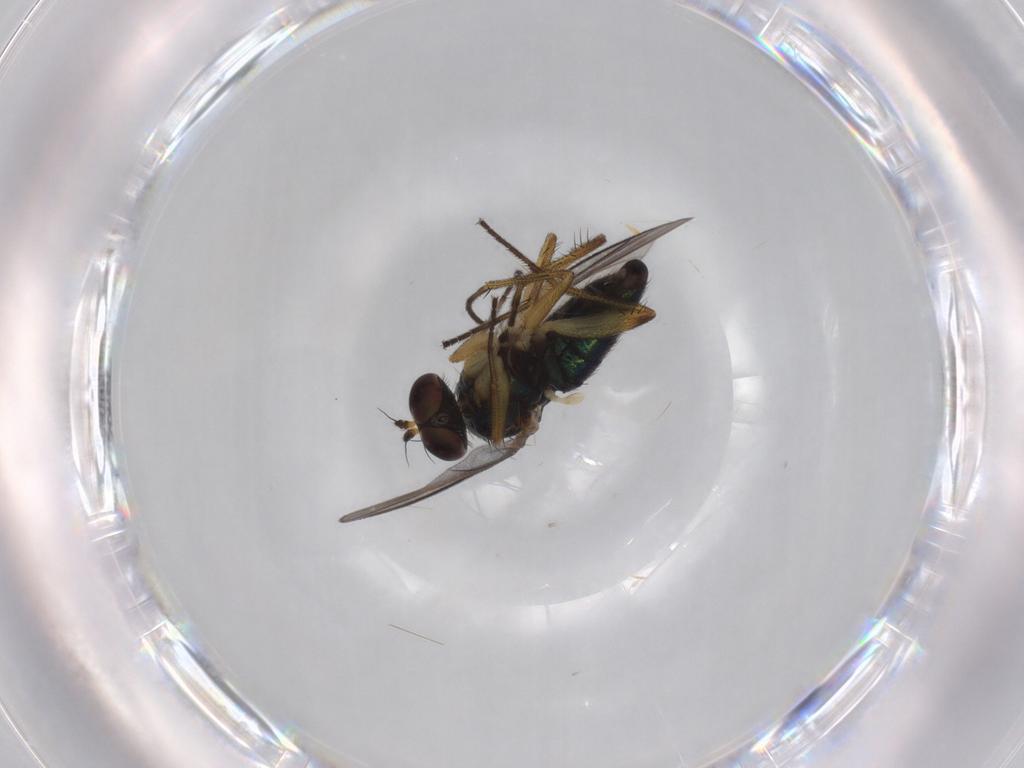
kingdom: Animalia
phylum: Arthropoda
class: Insecta
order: Diptera
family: Dolichopodidae
